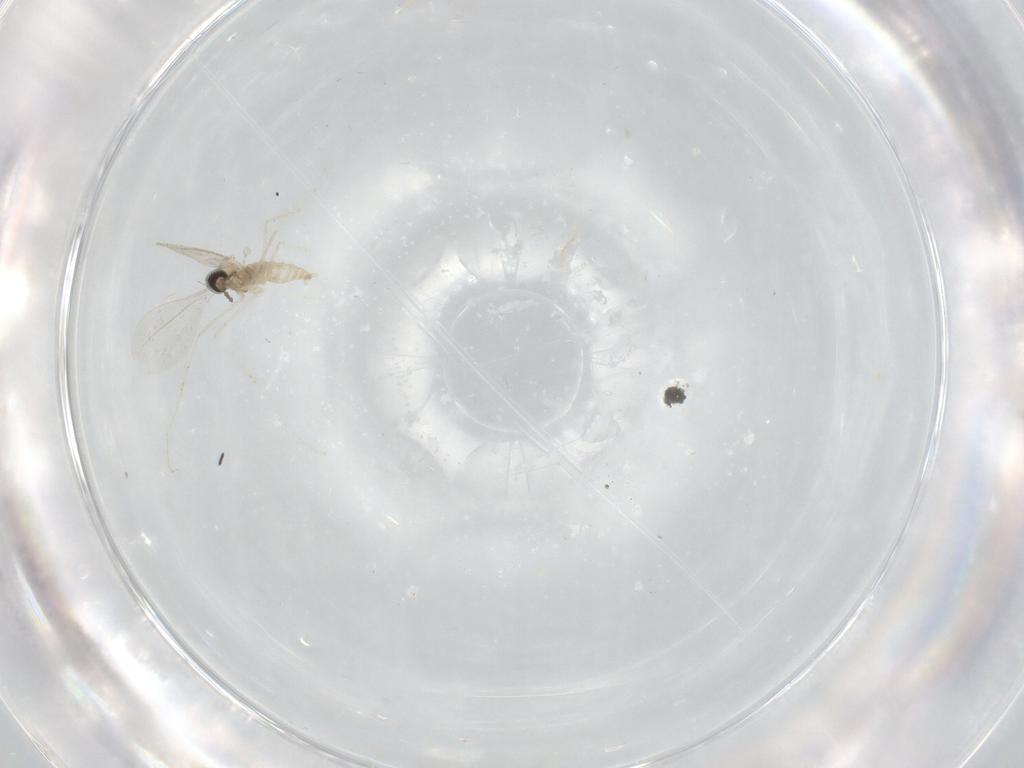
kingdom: Animalia
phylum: Arthropoda
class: Insecta
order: Diptera
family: Cecidomyiidae
